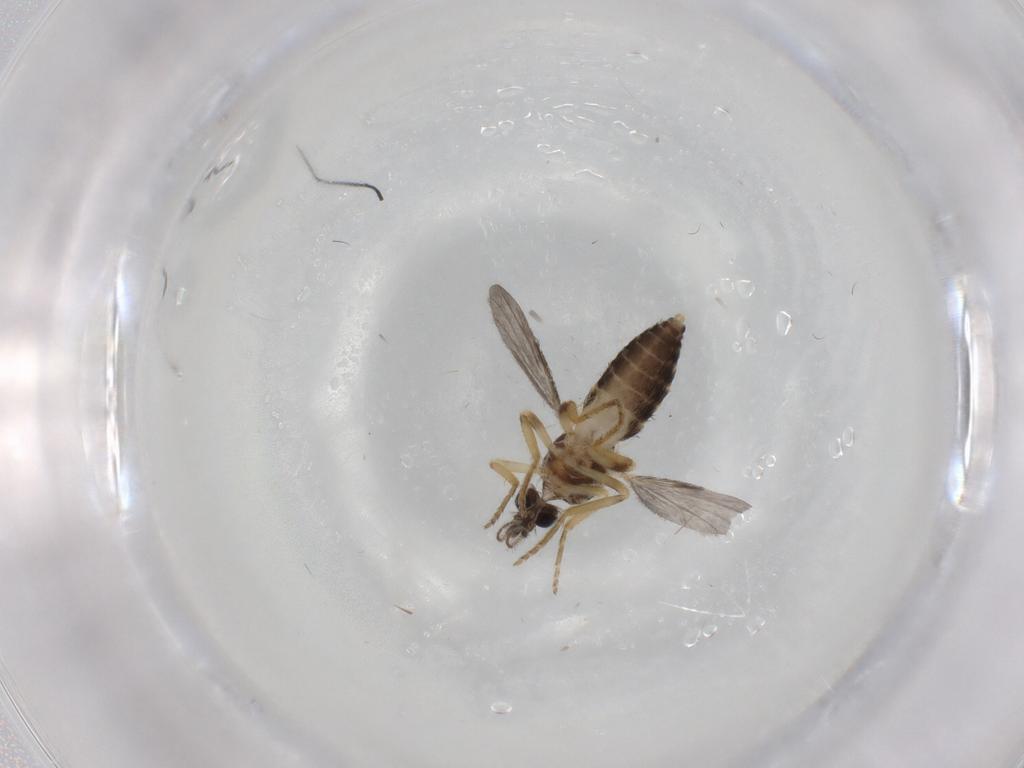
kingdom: Animalia
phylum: Arthropoda
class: Insecta
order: Diptera
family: Ceratopogonidae
